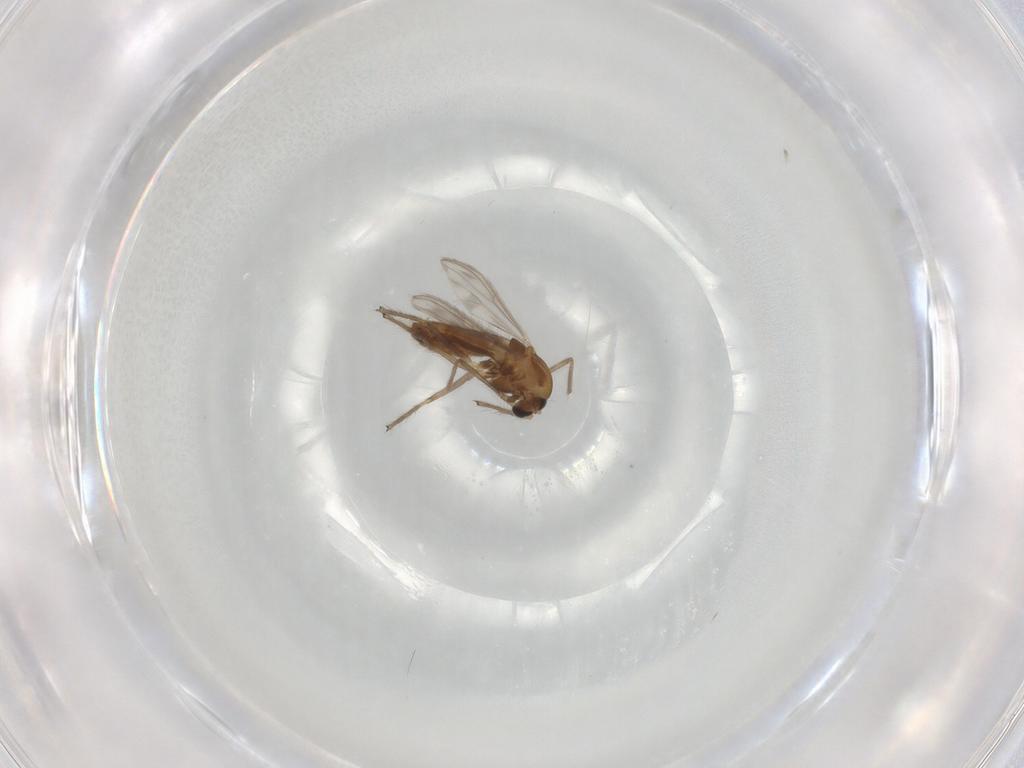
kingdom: Animalia
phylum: Arthropoda
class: Insecta
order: Diptera
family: Chironomidae
